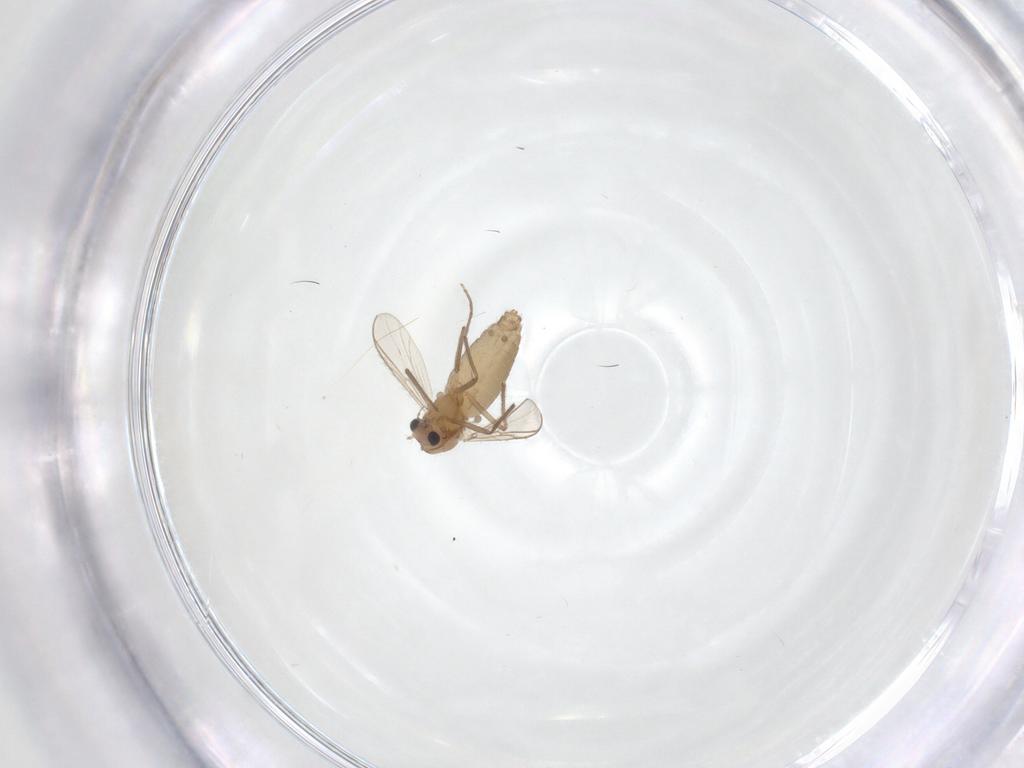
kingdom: Animalia
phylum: Arthropoda
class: Insecta
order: Diptera
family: Chironomidae
